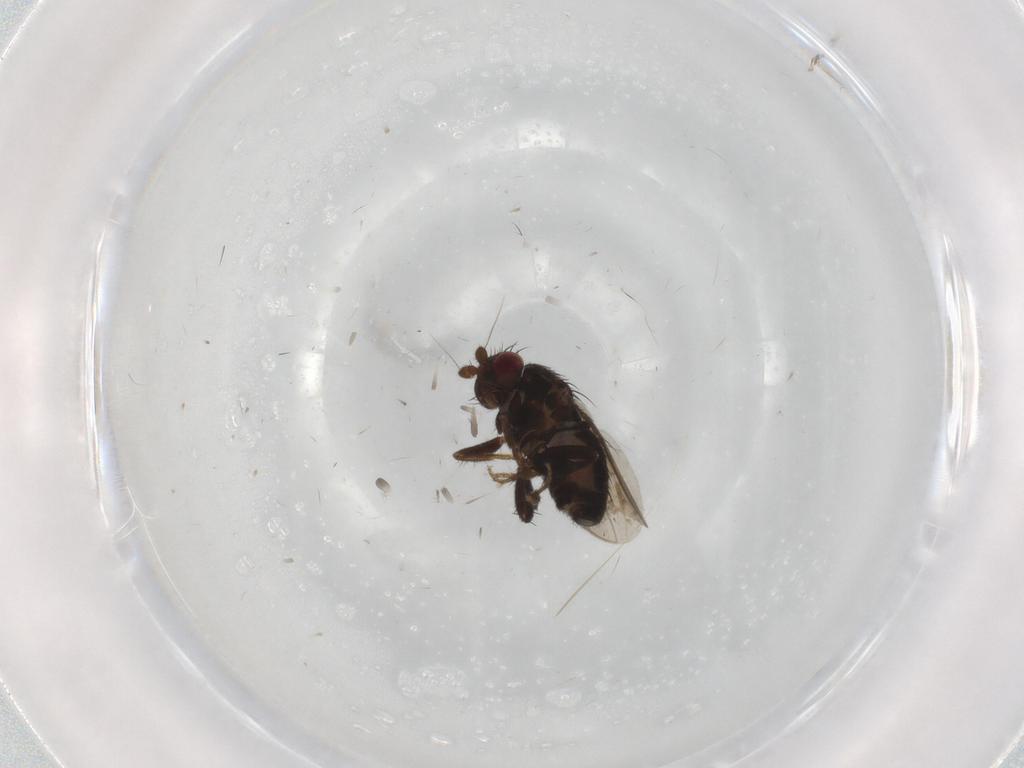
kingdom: Animalia
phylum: Arthropoda
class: Insecta
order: Diptera
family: Sphaeroceridae
